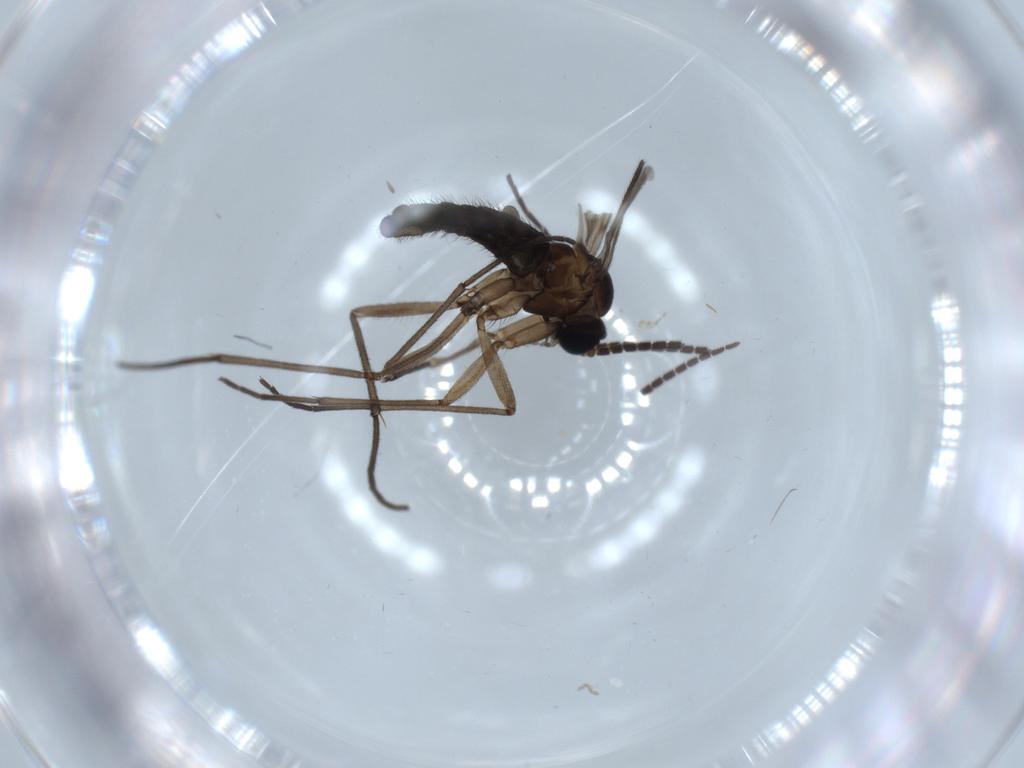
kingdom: Animalia
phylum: Arthropoda
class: Insecta
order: Diptera
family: Sciaridae
